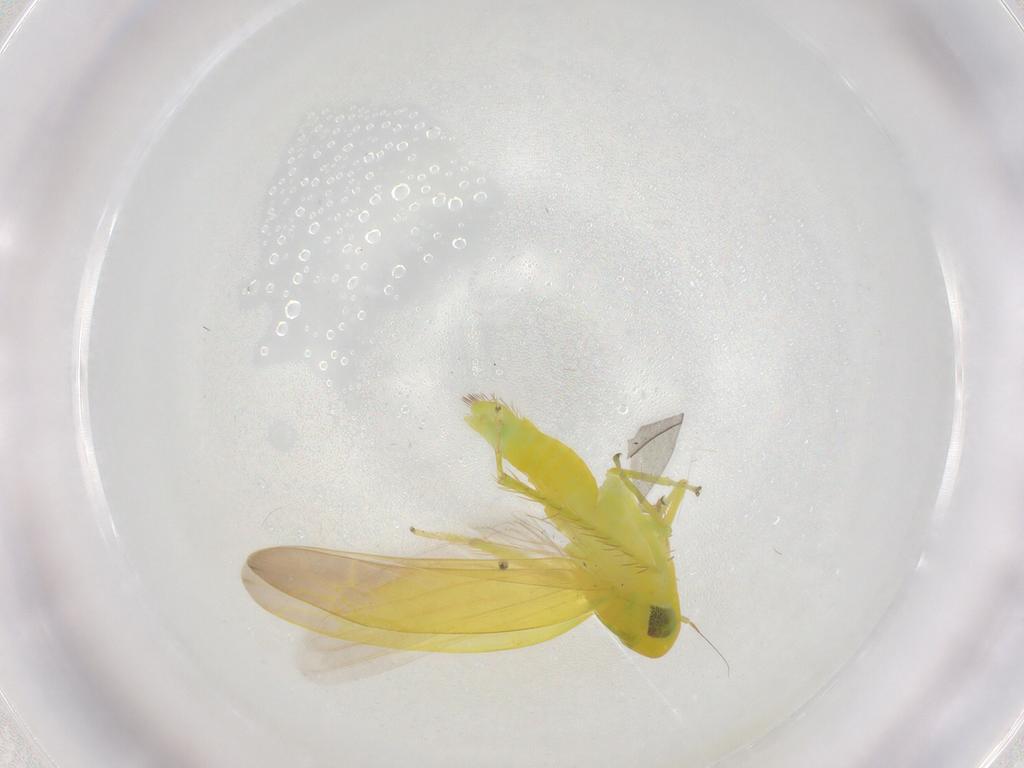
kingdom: Animalia
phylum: Arthropoda
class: Insecta
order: Hemiptera
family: Cicadellidae
